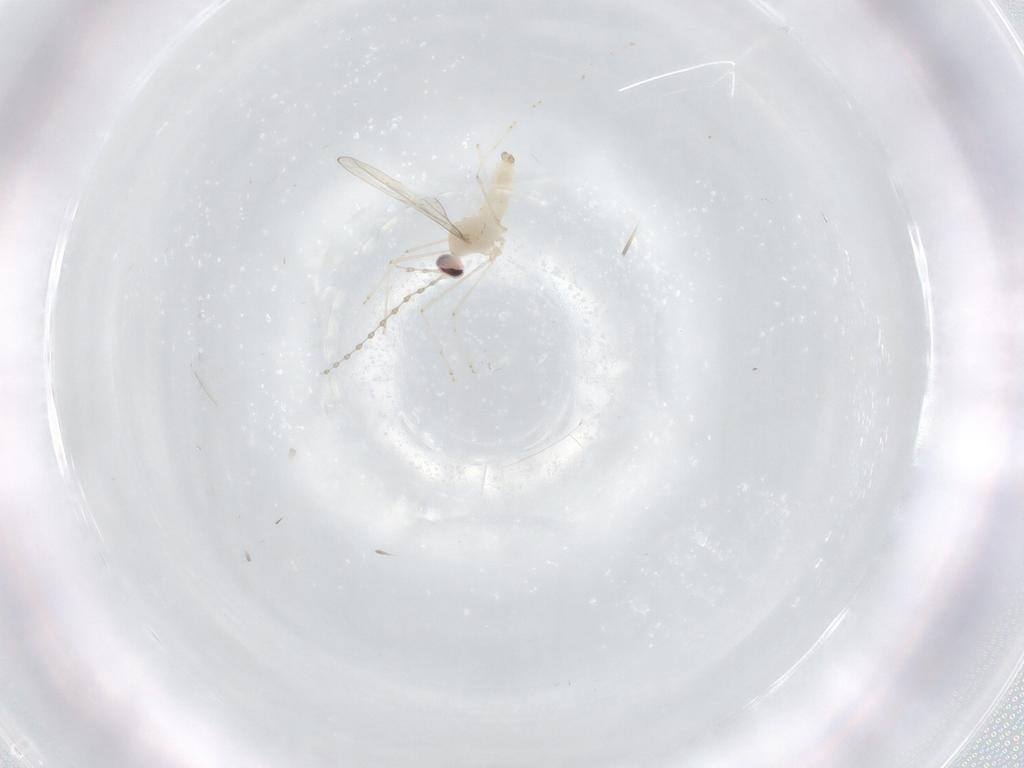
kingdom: Animalia
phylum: Arthropoda
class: Insecta
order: Diptera
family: Cecidomyiidae
